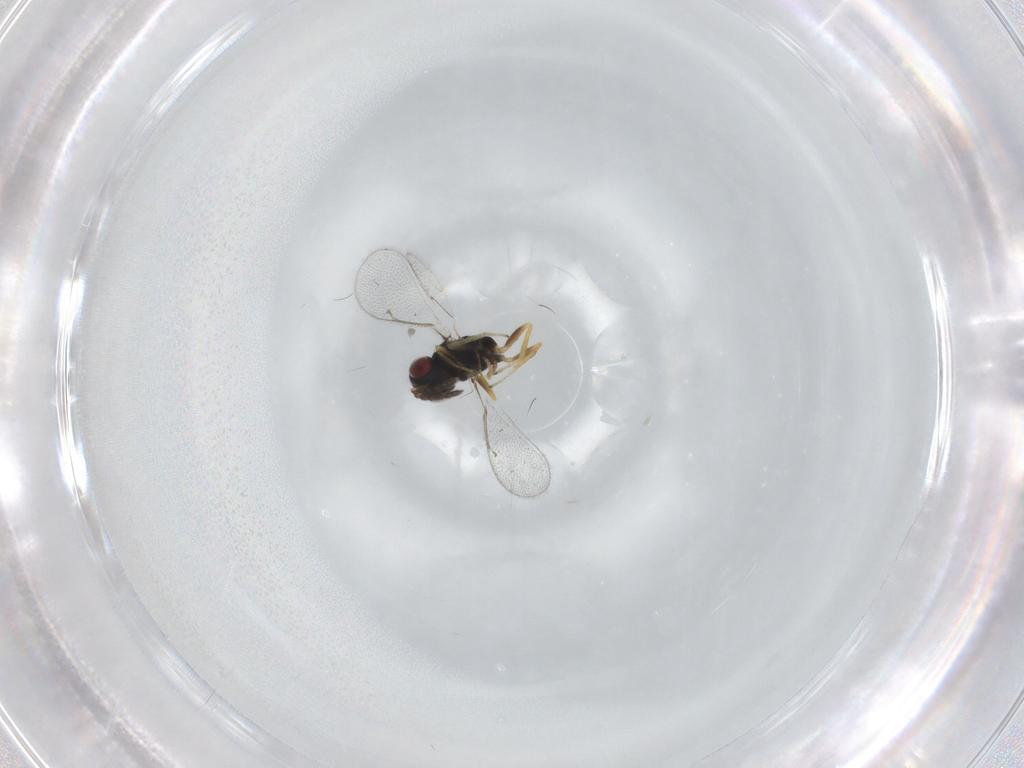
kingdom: Animalia
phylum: Arthropoda
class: Insecta
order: Hymenoptera
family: Eulophidae
